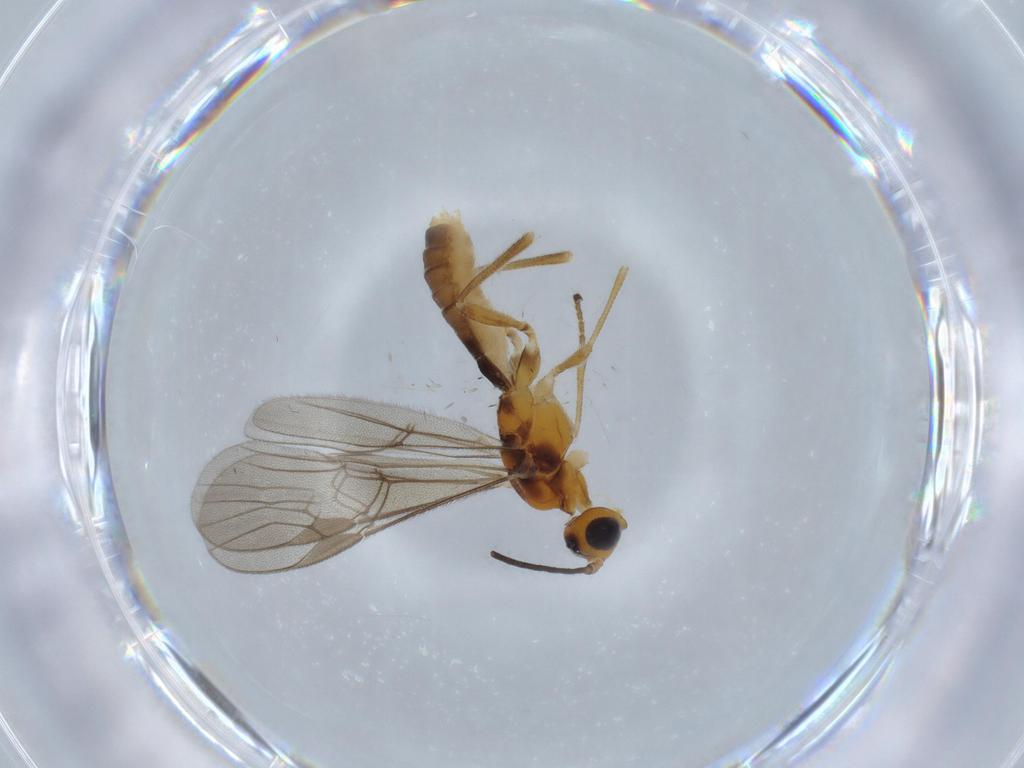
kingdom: Animalia
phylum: Arthropoda
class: Insecta
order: Hymenoptera
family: Braconidae
